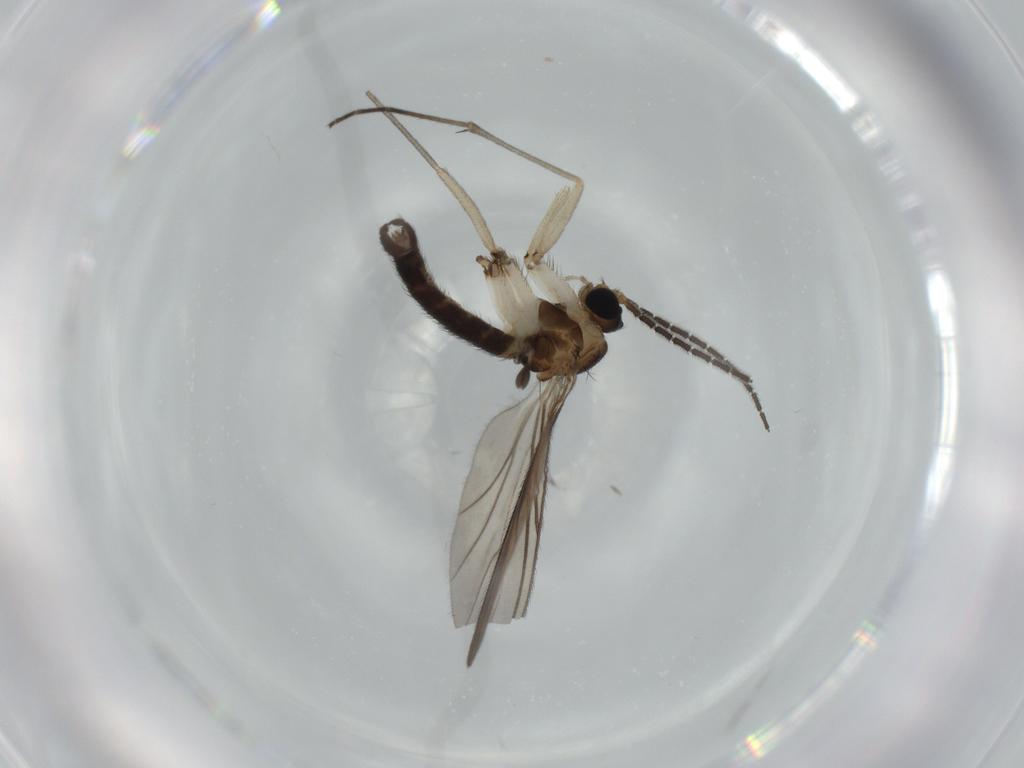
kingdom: Animalia
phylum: Arthropoda
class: Insecta
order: Diptera
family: Sciaridae
